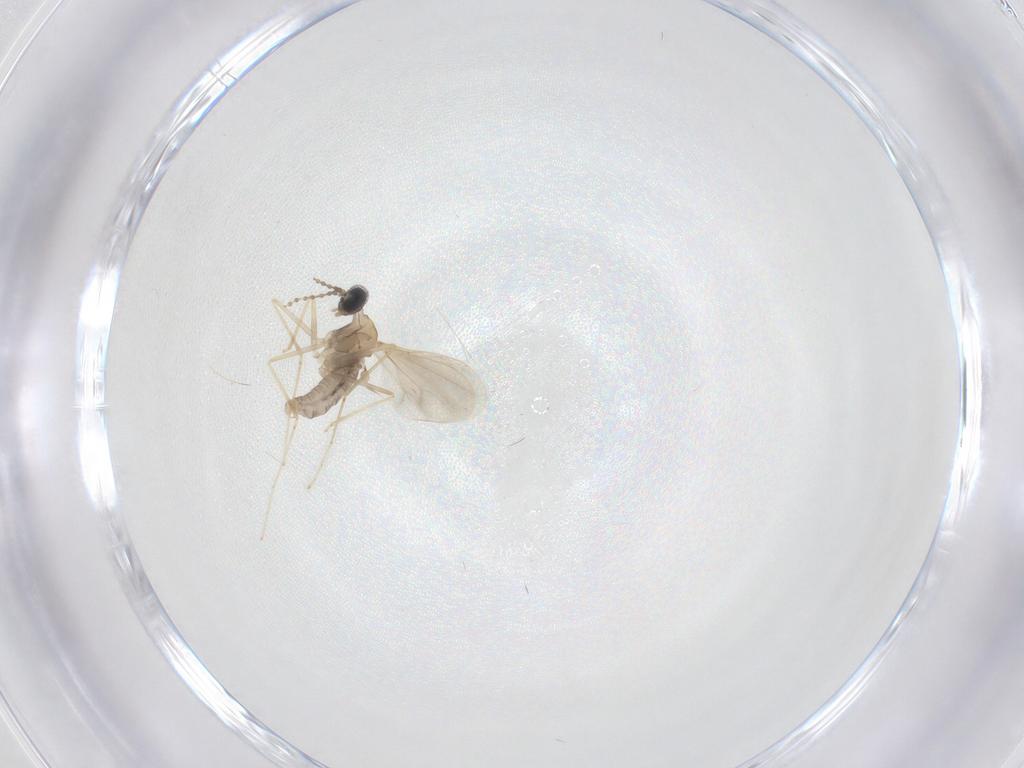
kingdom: Animalia
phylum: Arthropoda
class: Insecta
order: Diptera
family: Cecidomyiidae
